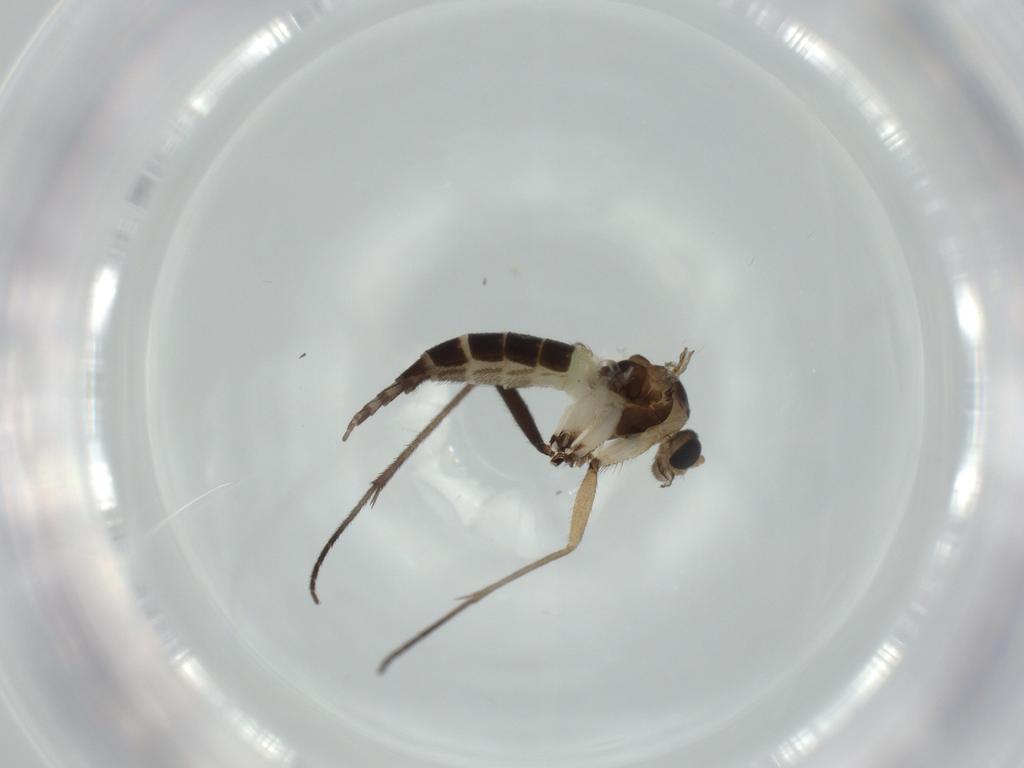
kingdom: Animalia
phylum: Arthropoda
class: Insecta
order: Diptera
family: Sciaridae
